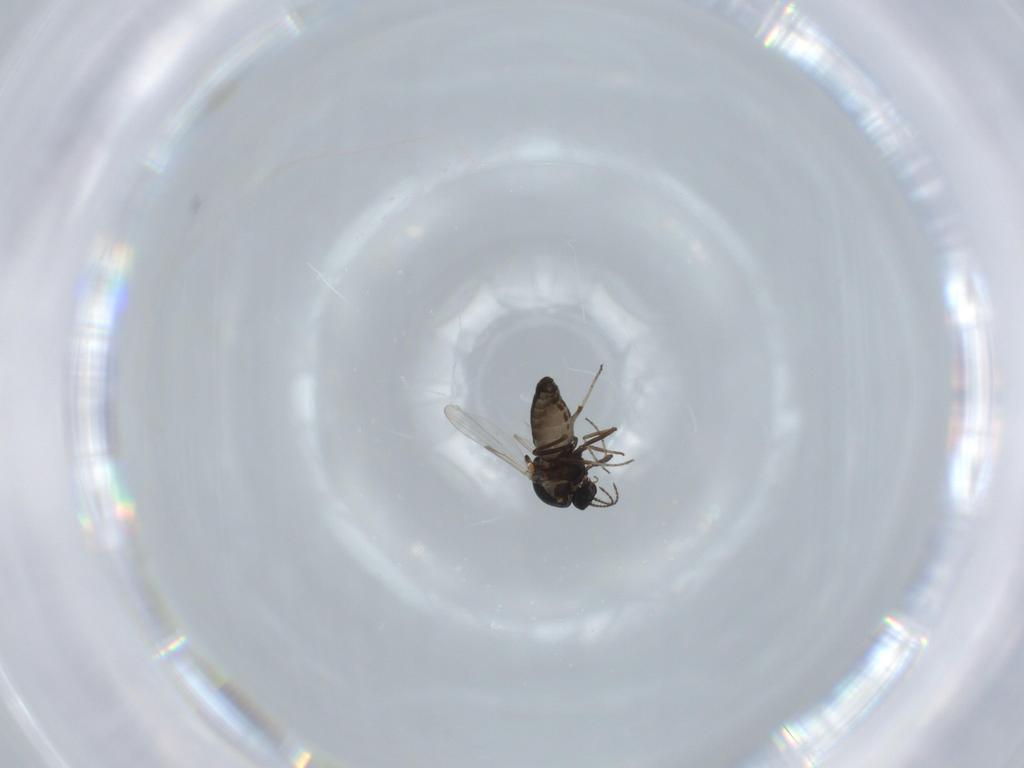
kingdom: Animalia
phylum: Arthropoda
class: Insecta
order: Diptera
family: Ceratopogonidae
